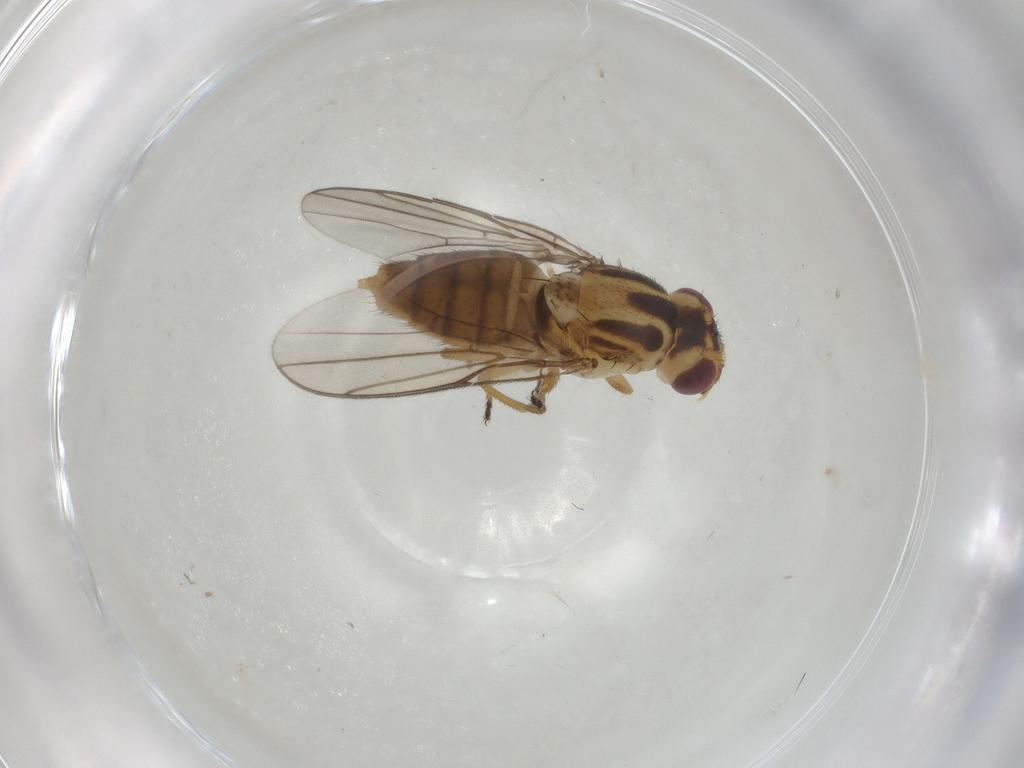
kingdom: Animalia
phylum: Arthropoda
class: Insecta
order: Diptera
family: Chloropidae
